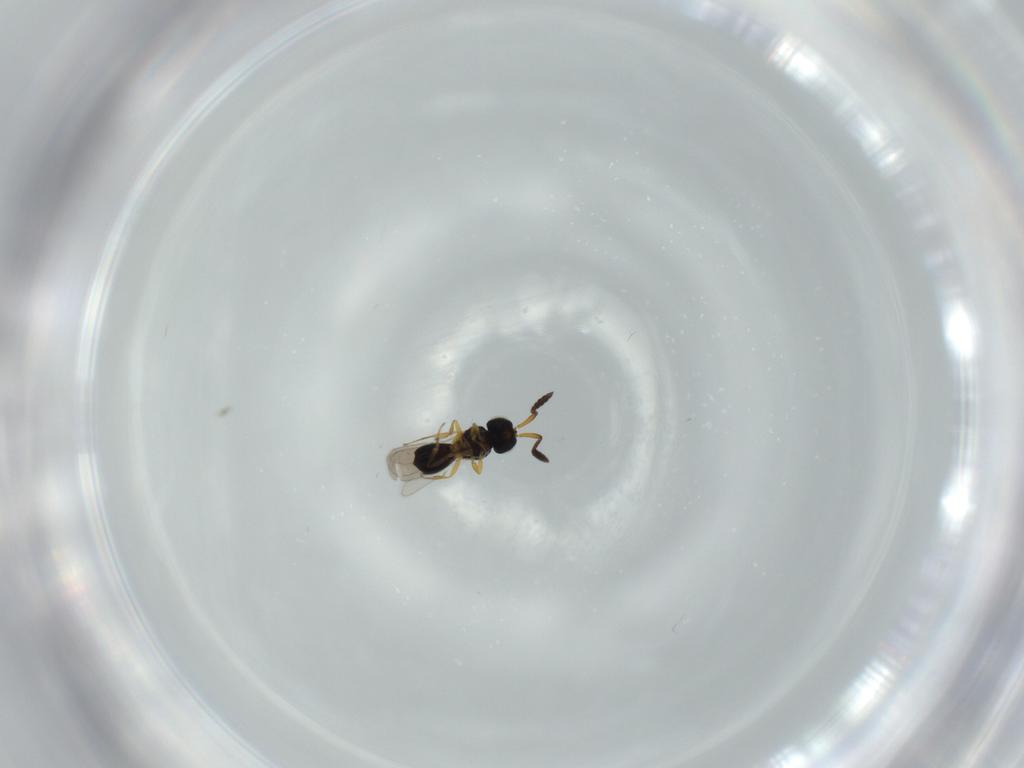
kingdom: Animalia
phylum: Arthropoda
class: Insecta
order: Hymenoptera
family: Scelionidae
